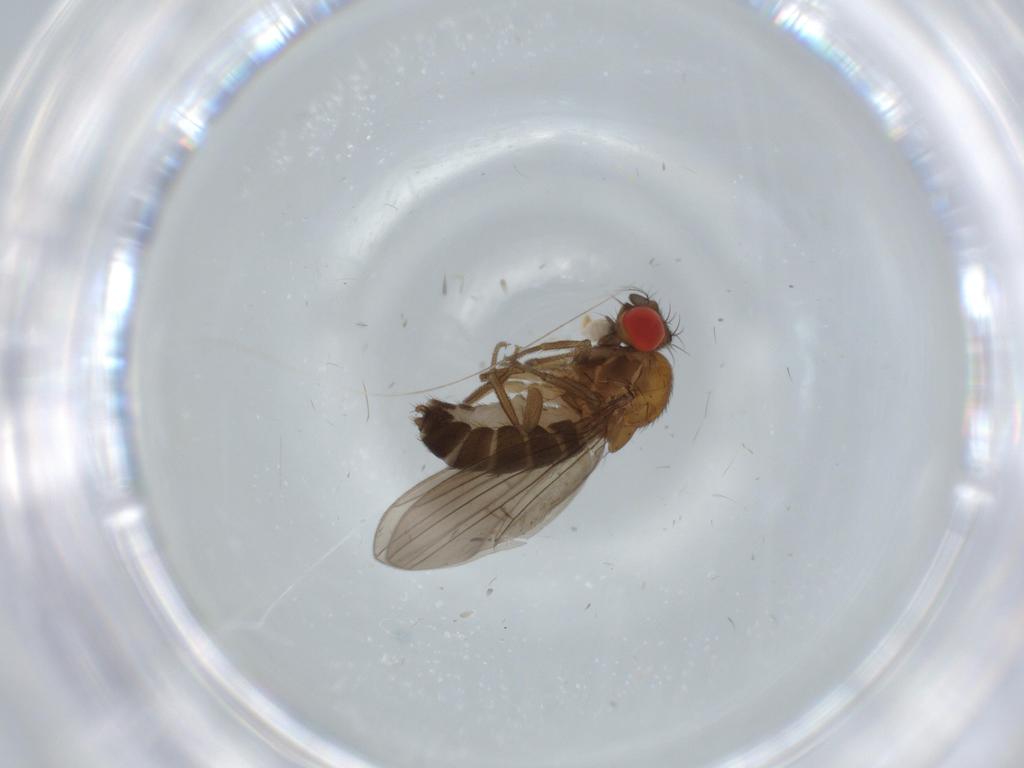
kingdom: Animalia
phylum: Arthropoda
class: Insecta
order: Diptera
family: Drosophilidae
